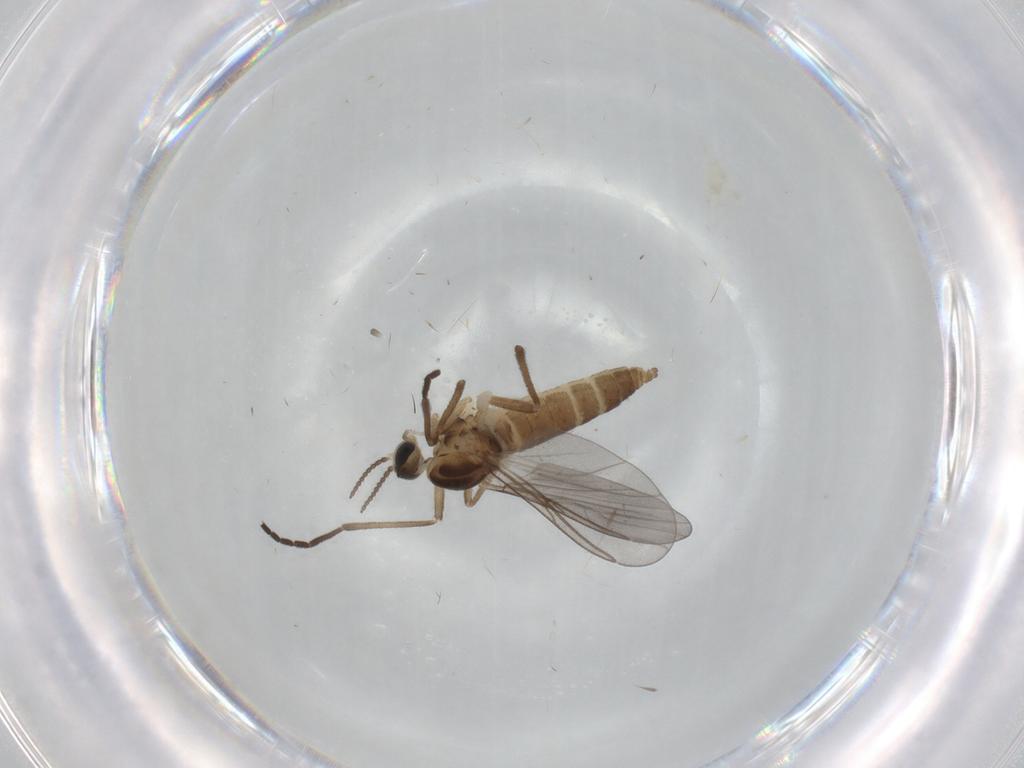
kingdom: Animalia
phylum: Arthropoda
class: Insecta
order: Diptera
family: Cecidomyiidae
